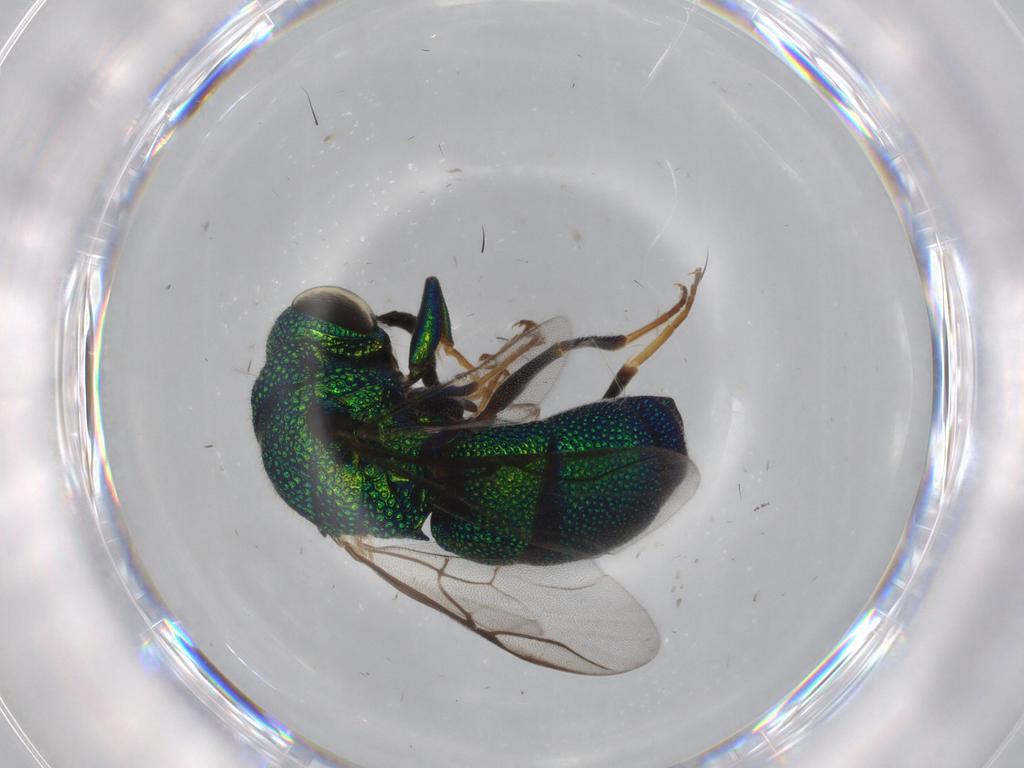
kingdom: Animalia
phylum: Arthropoda
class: Insecta
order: Hymenoptera
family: Chrysididae
